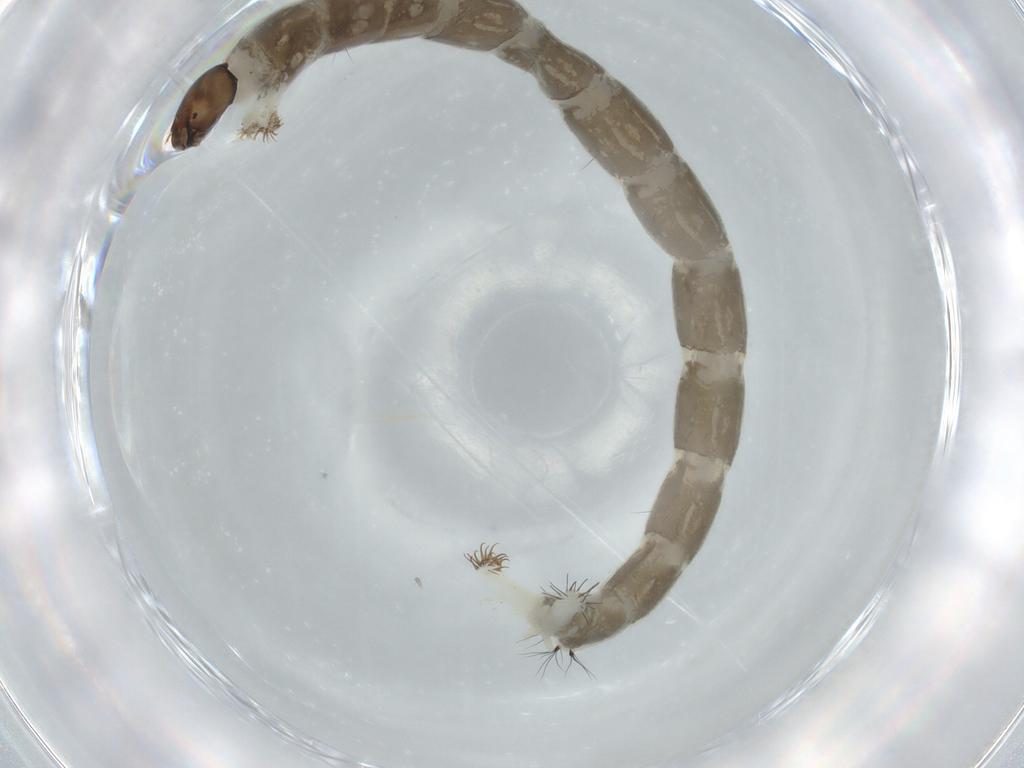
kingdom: Animalia
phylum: Arthropoda
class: Insecta
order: Diptera
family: Chironomidae
